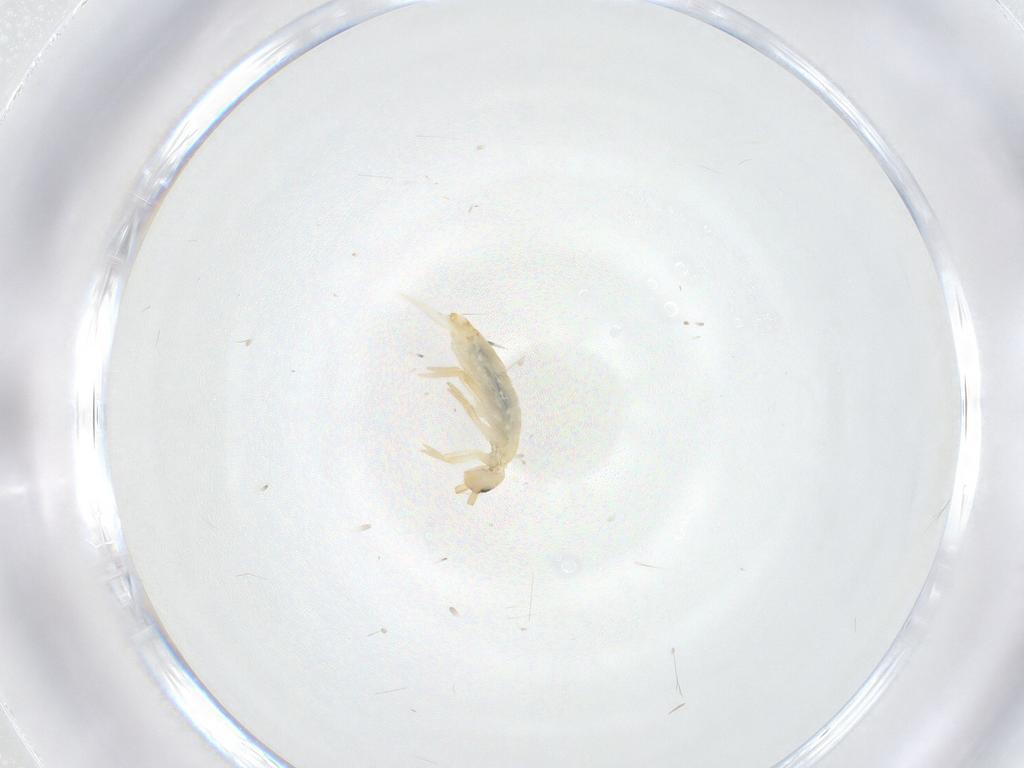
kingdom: Animalia
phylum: Arthropoda
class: Collembola
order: Entomobryomorpha
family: Entomobryidae
